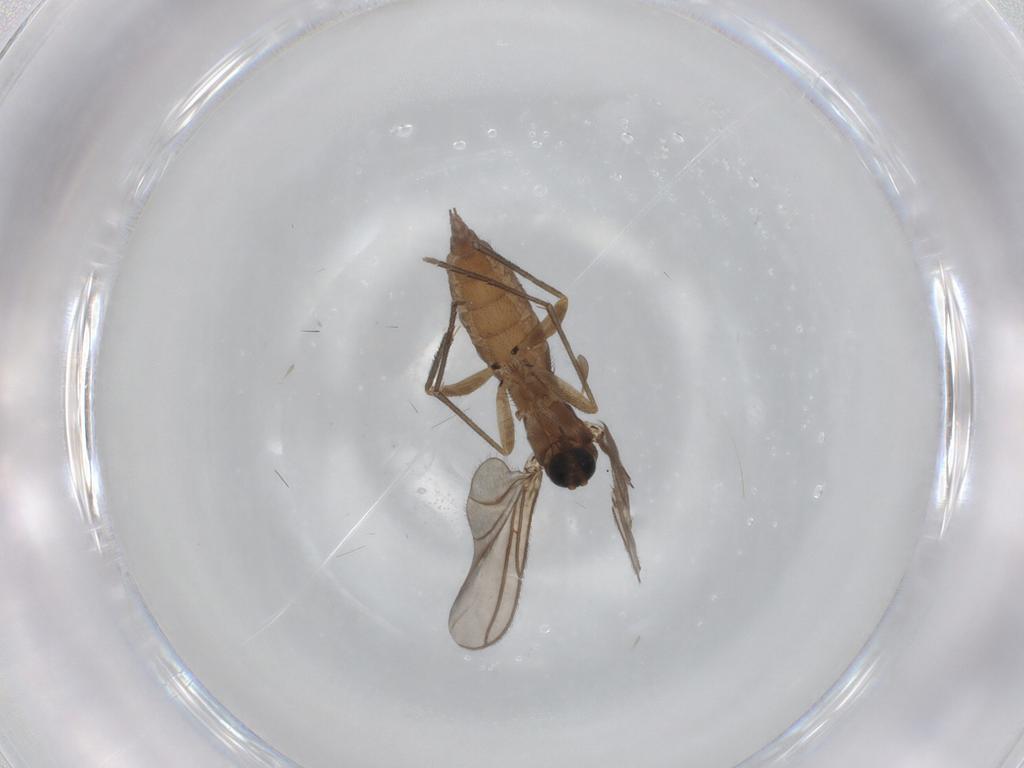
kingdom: Animalia
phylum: Arthropoda
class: Insecta
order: Diptera
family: Sciaridae
